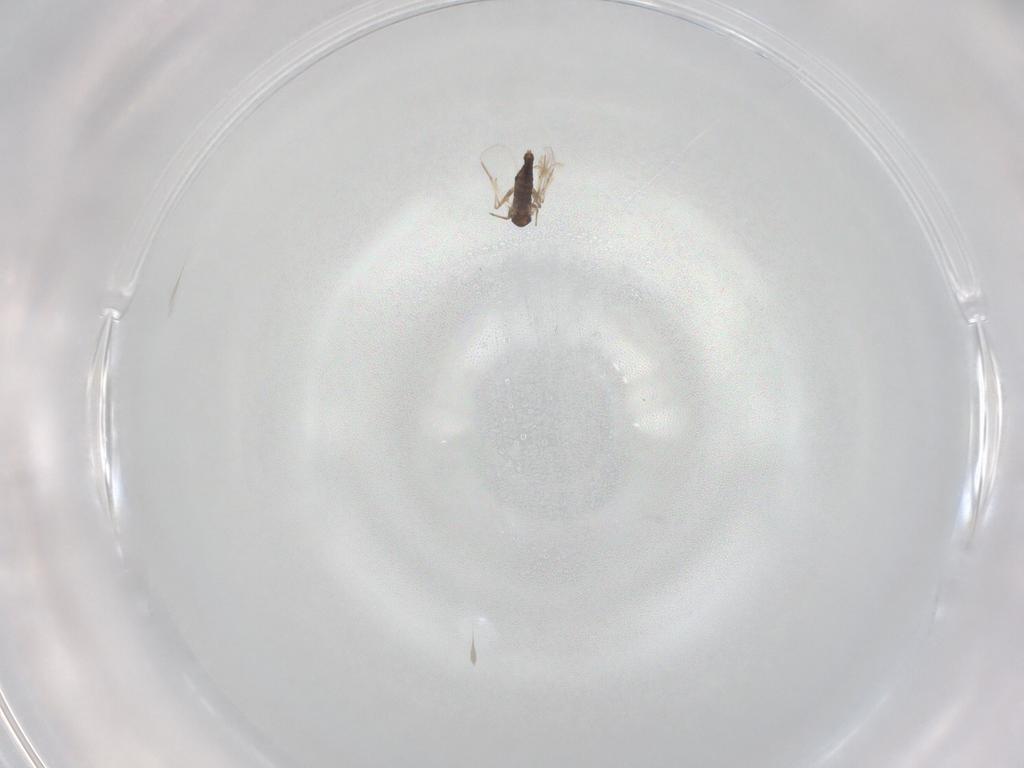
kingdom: Animalia
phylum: Arthropoda
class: Insecta
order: Diptera
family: Chironomidae
